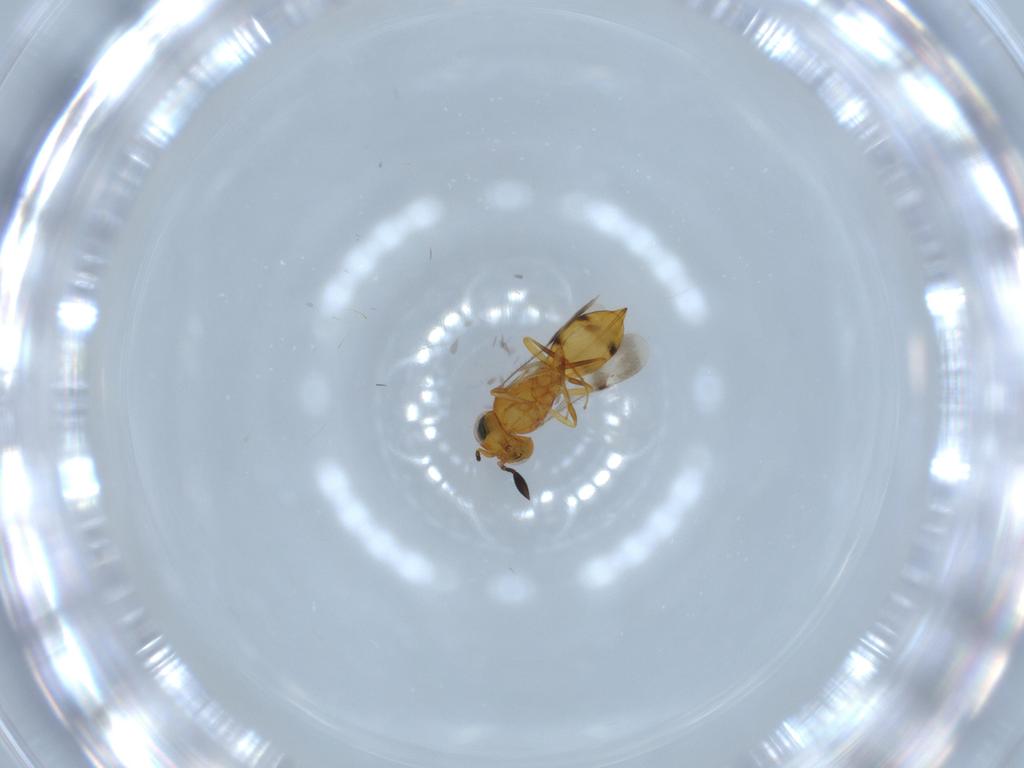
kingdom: Animalia
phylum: Arthropoda
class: Insecta
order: Hymenoptera
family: Scelionidae
